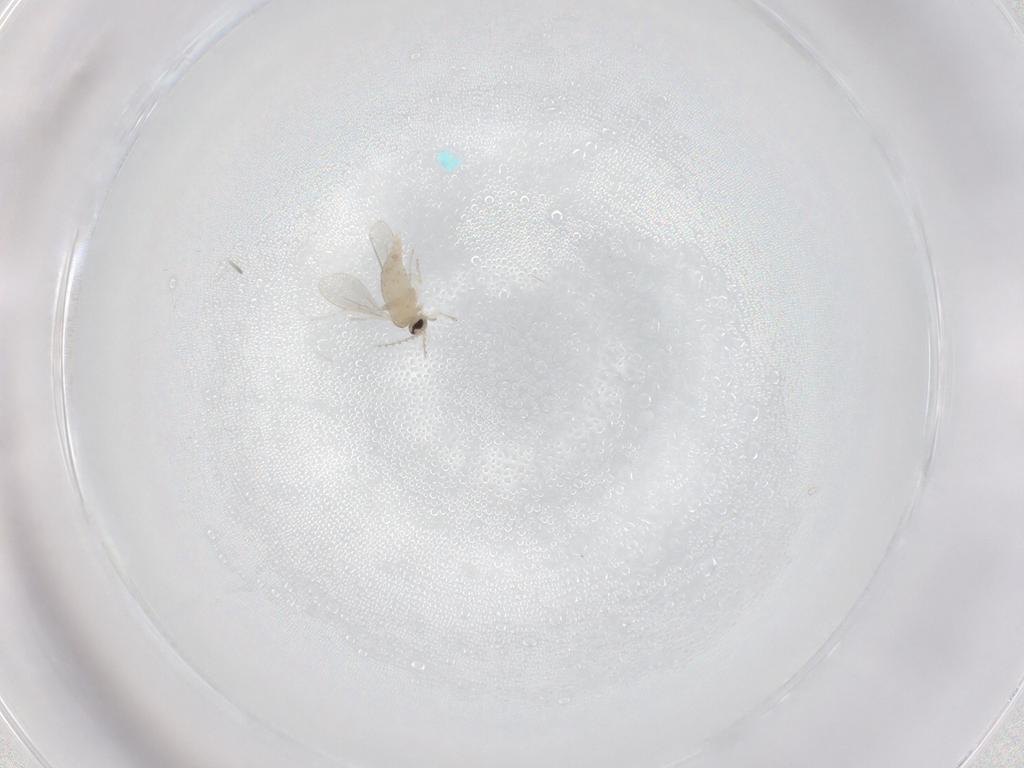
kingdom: Animalia
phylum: Arthropoda
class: Insecta
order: Diptera
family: Cecidomyiidae
